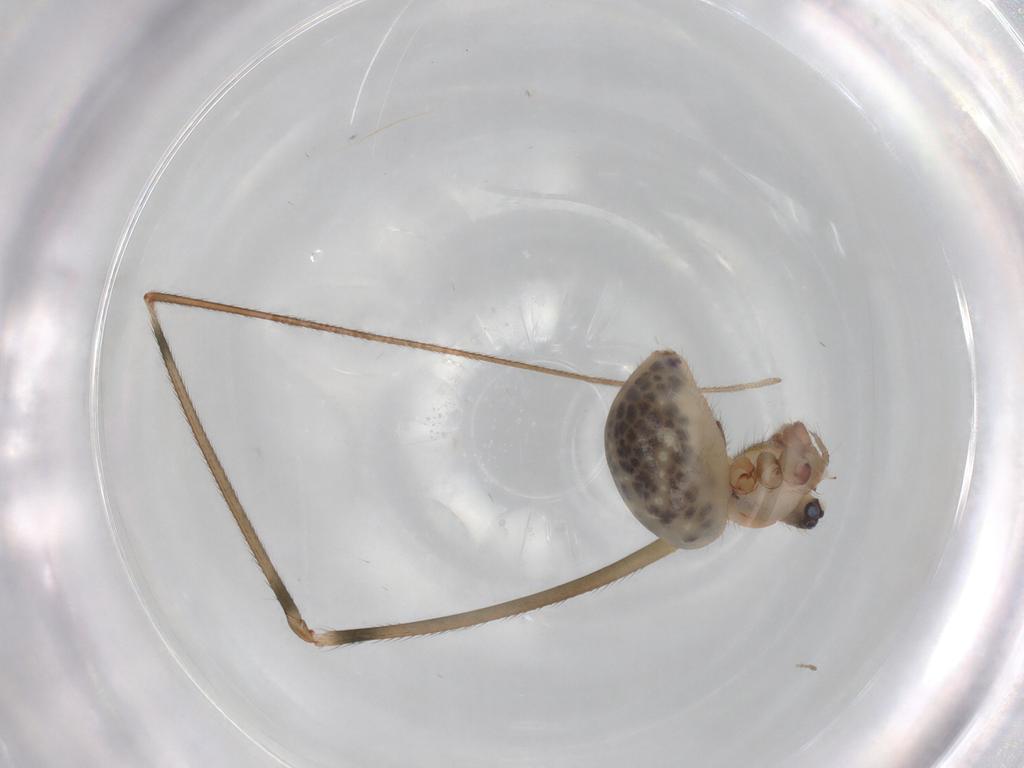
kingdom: Animalia
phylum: Arthropoda
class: Arachnida
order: Araneae
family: Pholcidae
